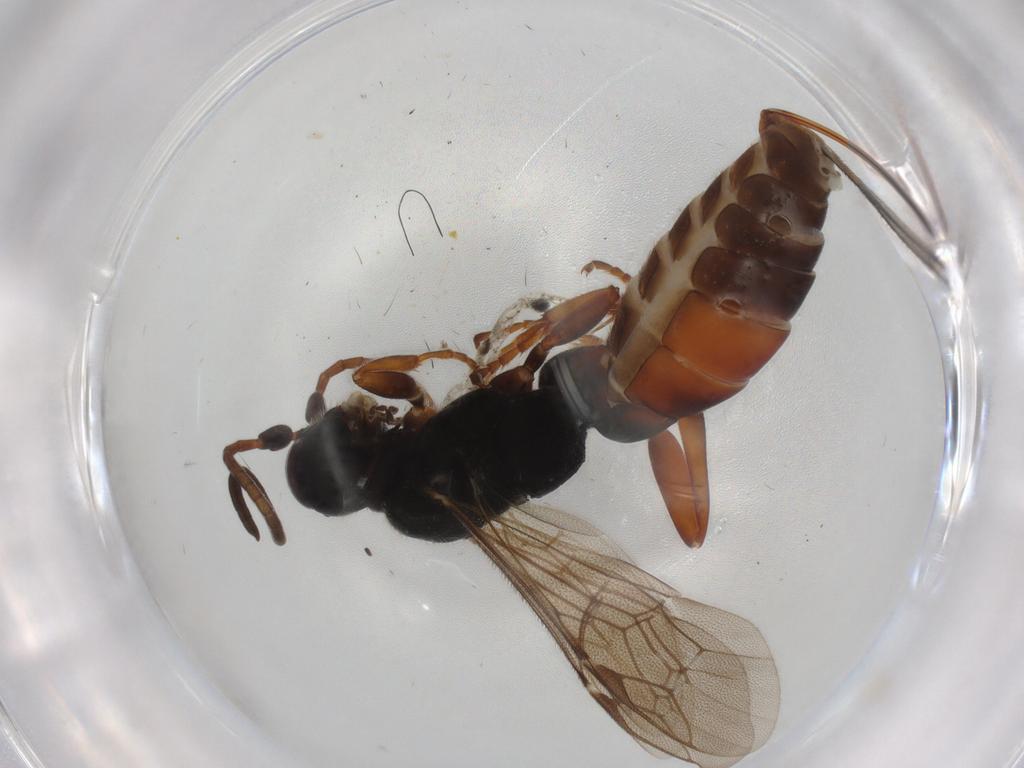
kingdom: Animalia
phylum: Arthropoda
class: Insecta
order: Hymenoptera
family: Ichneumonidae
